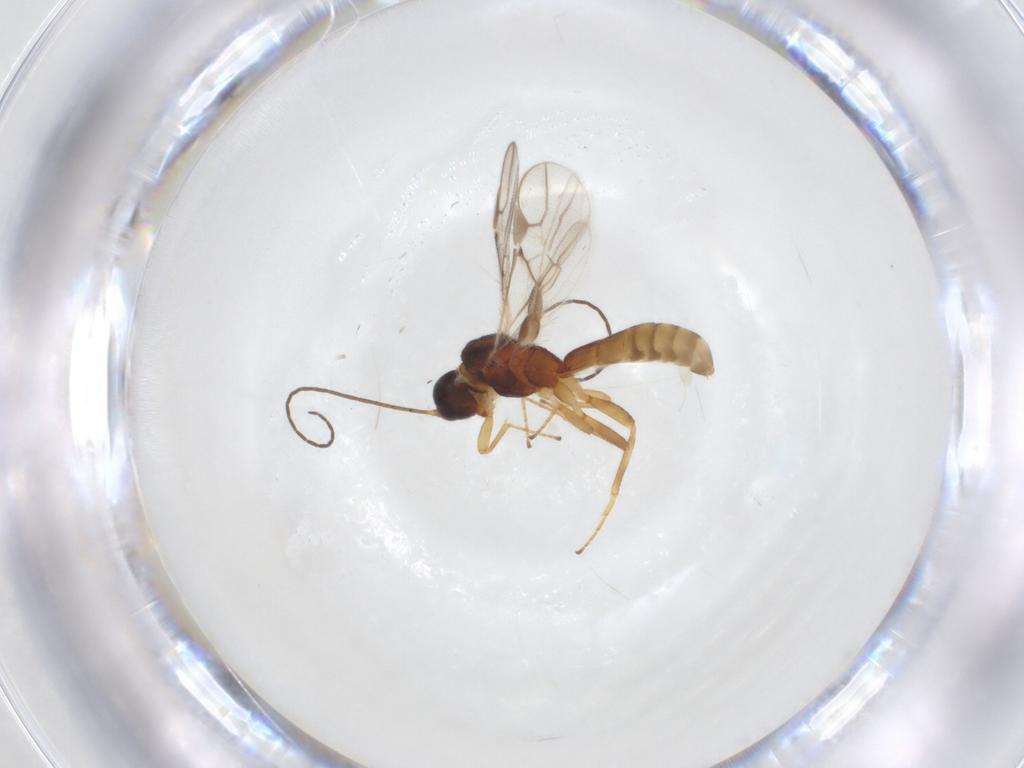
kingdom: Animalia
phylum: Arthropoda
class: Insecta
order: Hymenoptera
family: Braconidae
